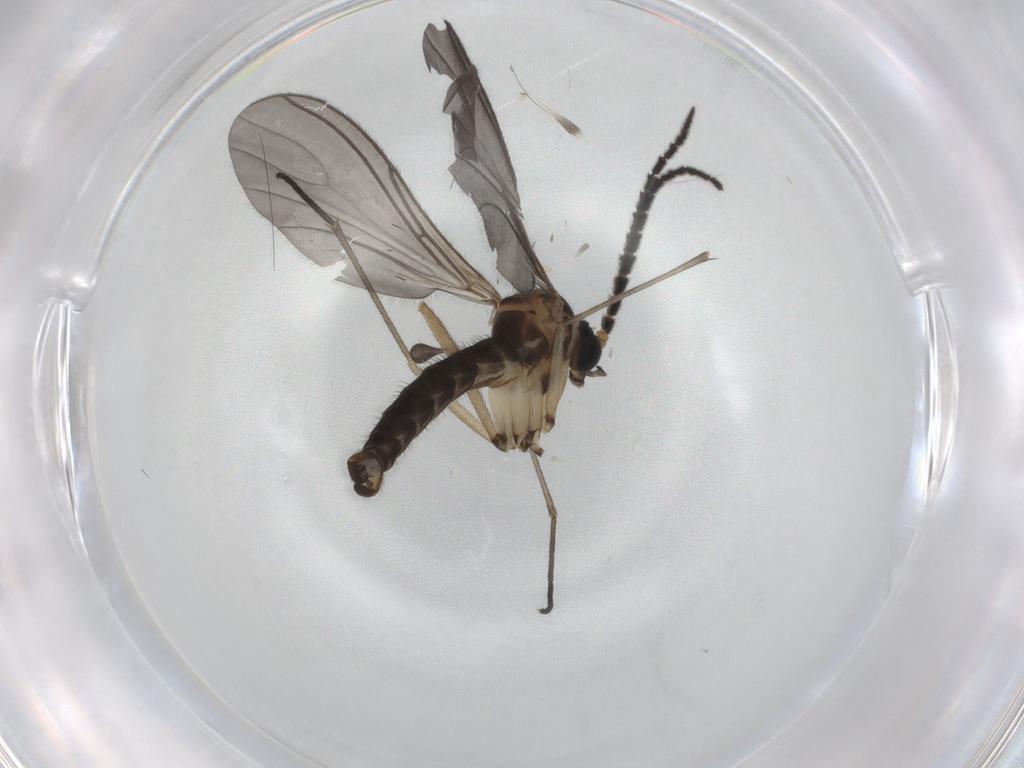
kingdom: Animalia
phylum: Arthropoda
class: Insecta
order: Diptera
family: Sciaridae
